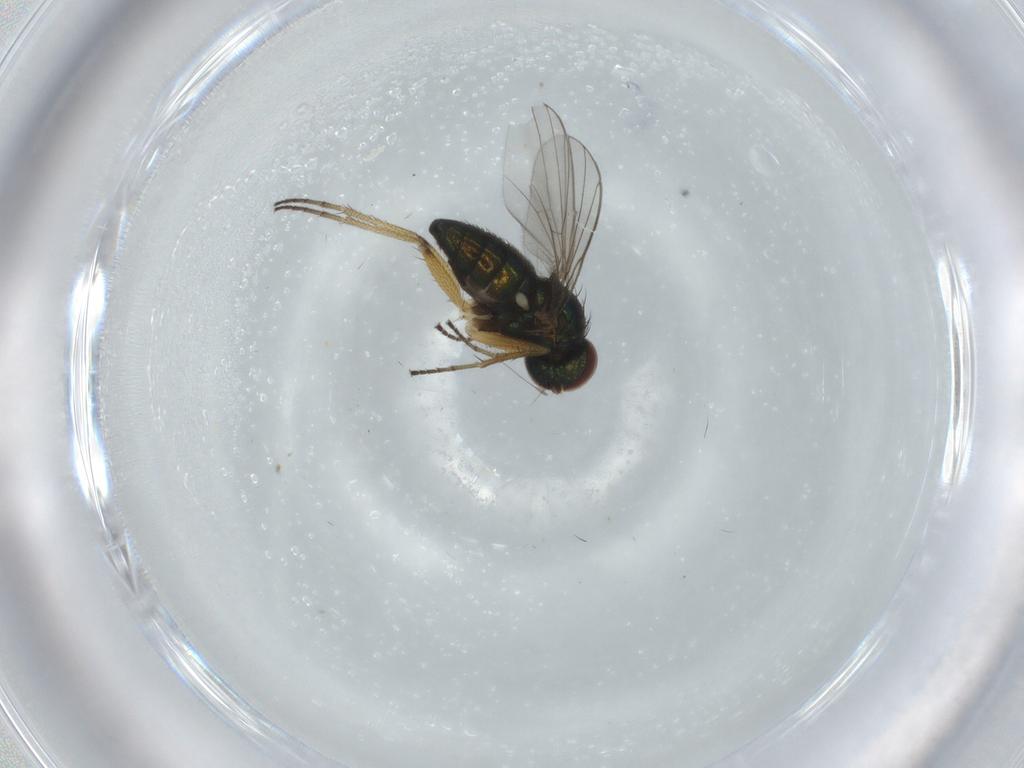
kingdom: Animalia
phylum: Arthropoda
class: Insecta
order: Diptera
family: Dolichopodidae
